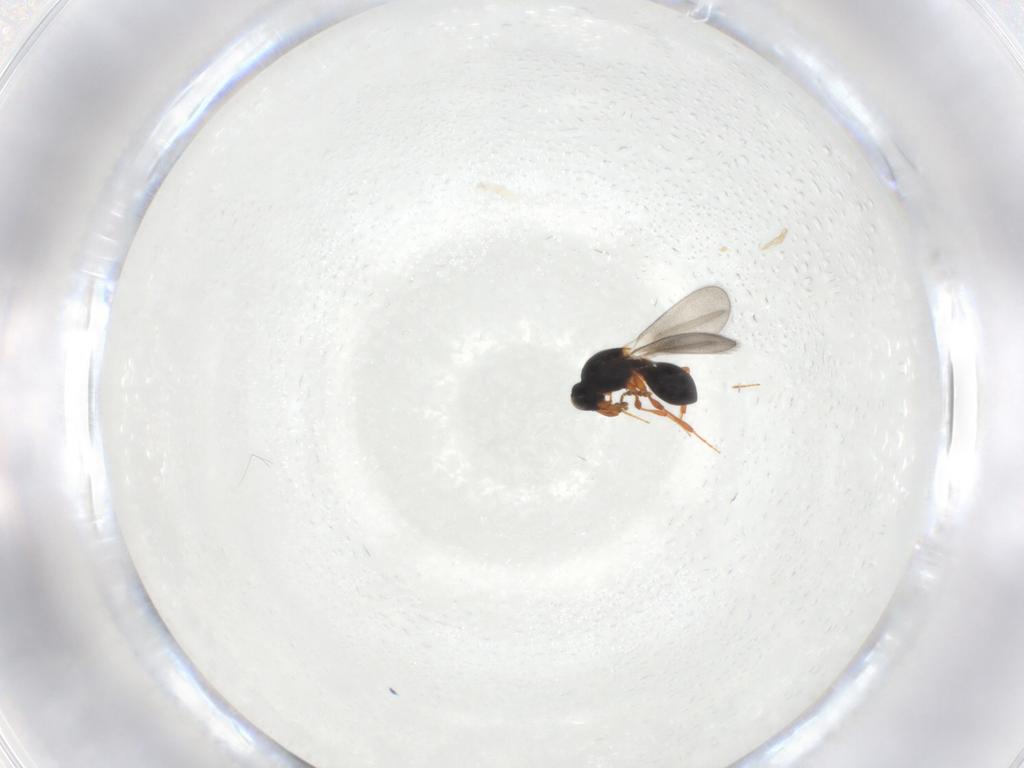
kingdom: Animalia
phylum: Arthropoda
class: Insecta
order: Hymenoptera
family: Platygastridae
